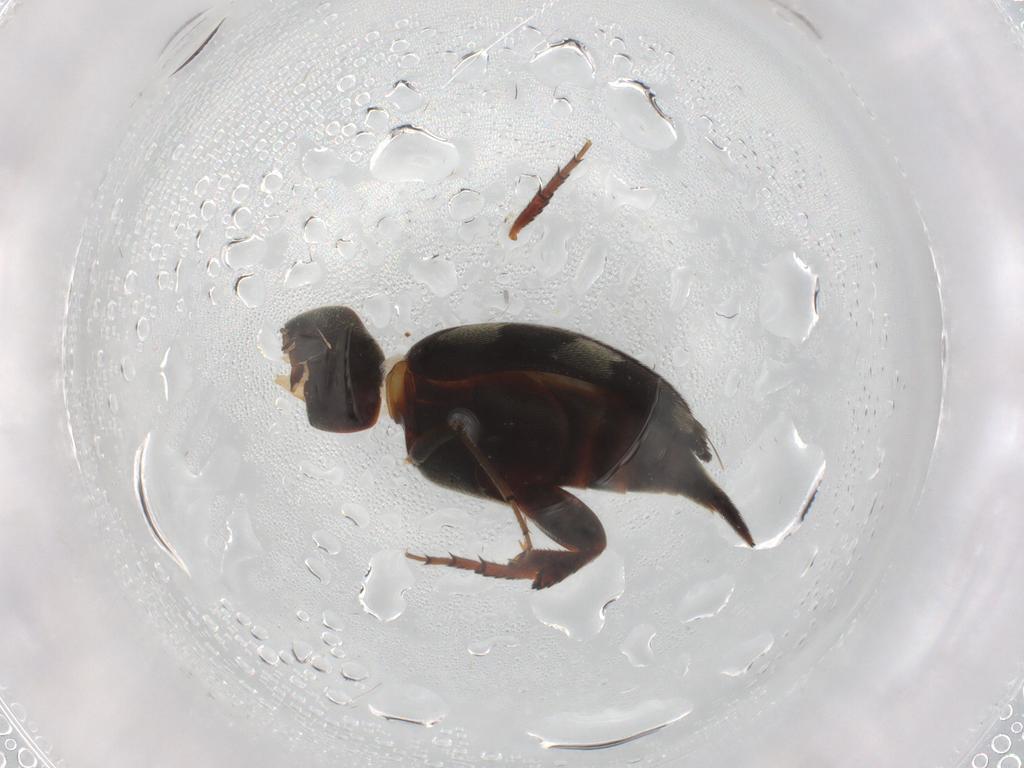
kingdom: Animalia
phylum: Arthropoda
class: Insecta
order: Coleoptera
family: Mordellidae
